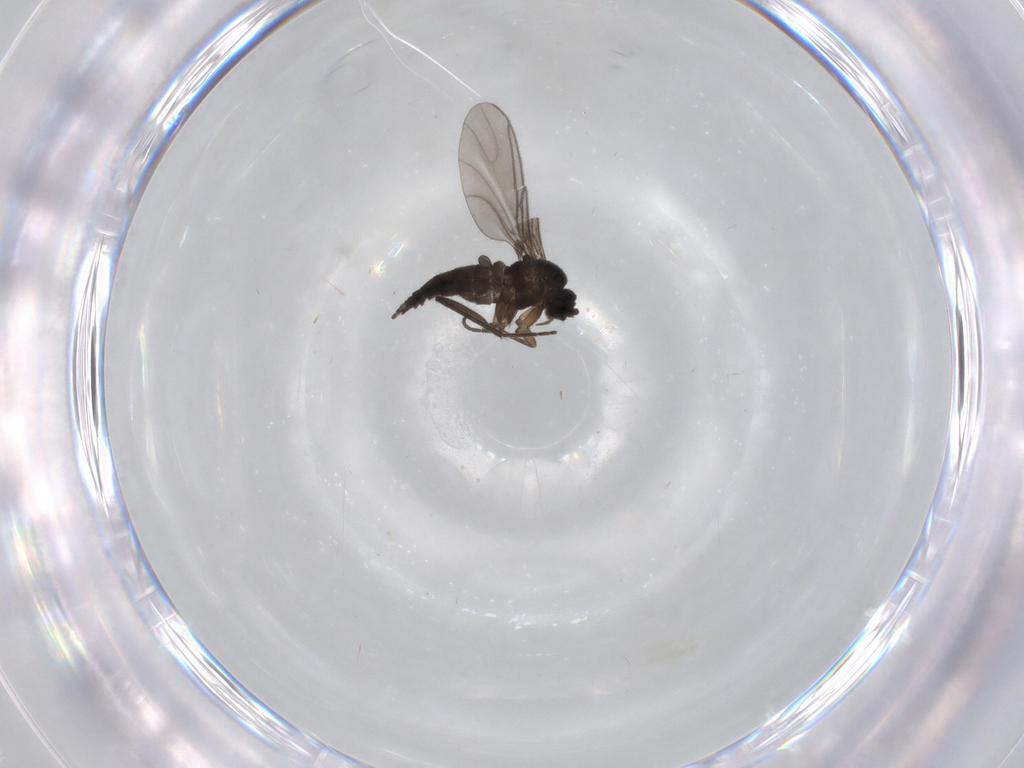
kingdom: Animalia
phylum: Arthropoda
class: Insecta
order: Diptera
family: Sciaridae
